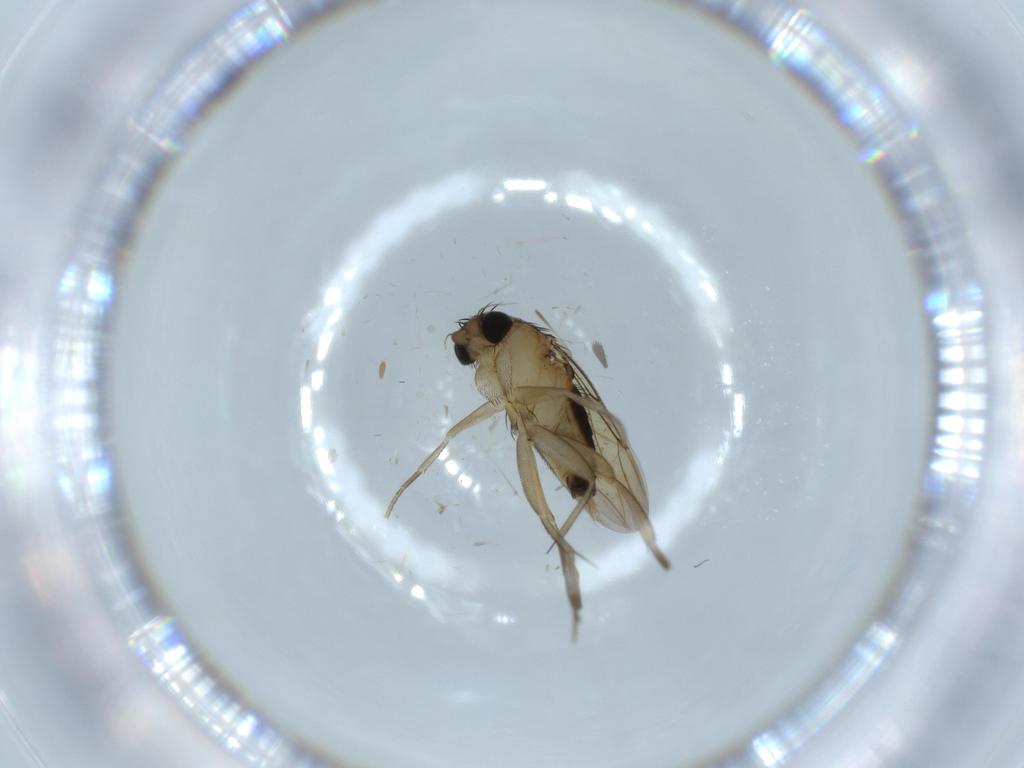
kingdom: Animalia
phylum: Arthropoda
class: Insecta
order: Diptera
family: Chironomidae
